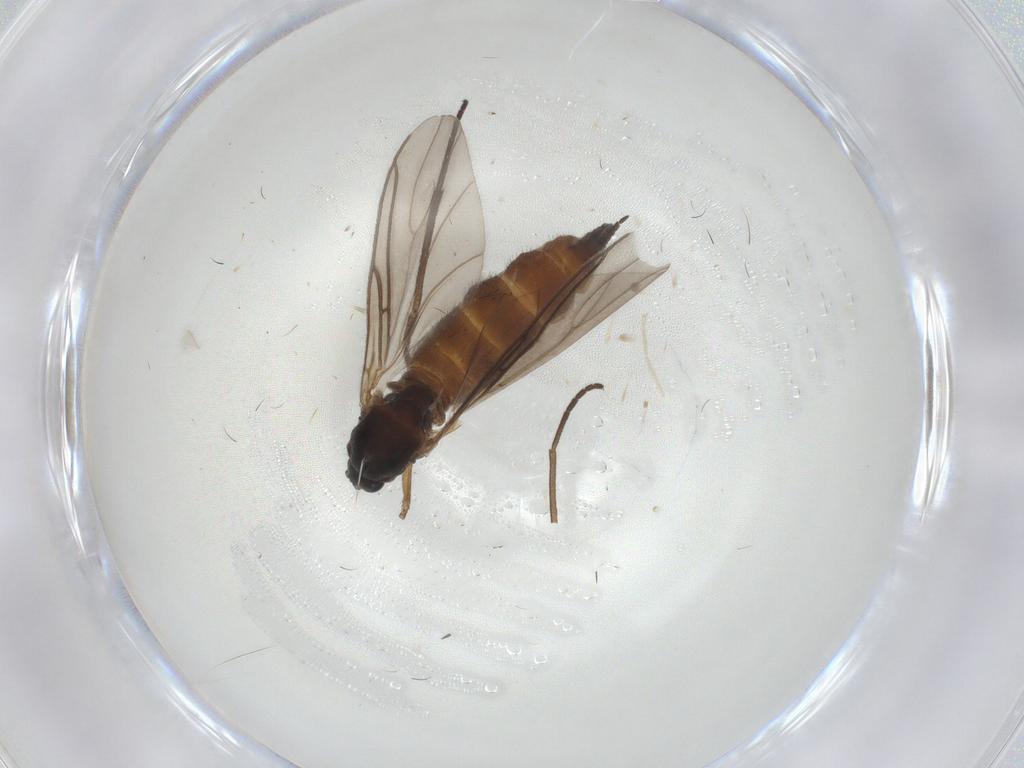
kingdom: Animalia
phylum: Arthropoda
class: Insecta
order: Diptera
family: Sciaridae
